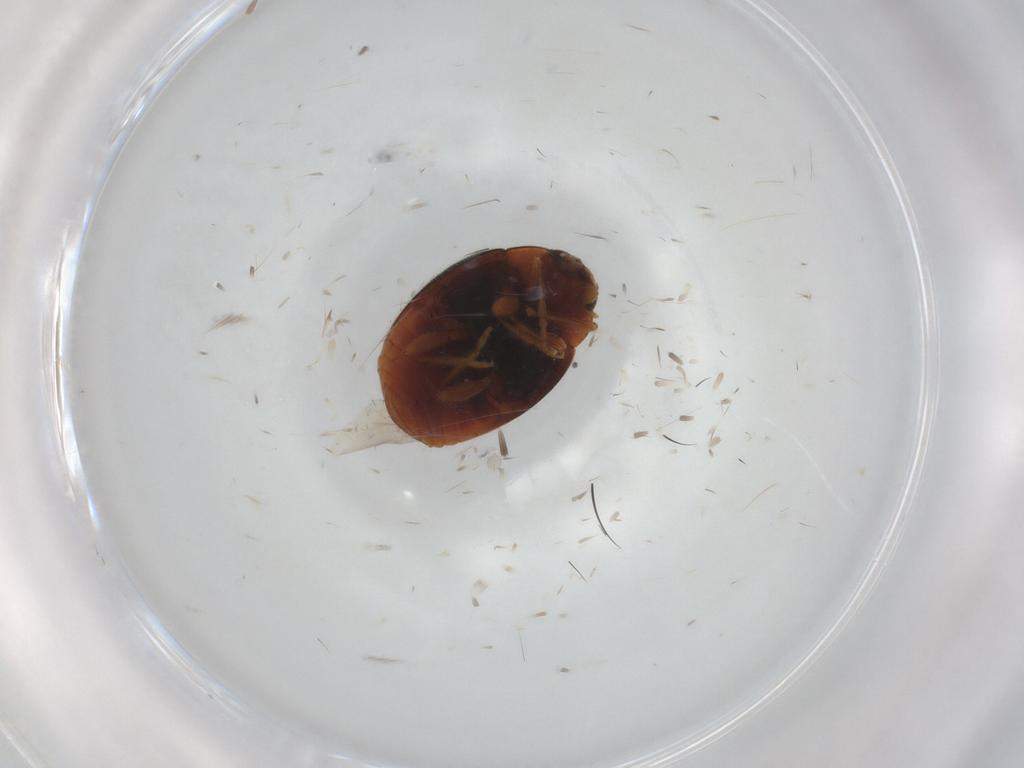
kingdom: Animalia
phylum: Arthropoda
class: Insecta
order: Coleoptera
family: Coccinellidae
